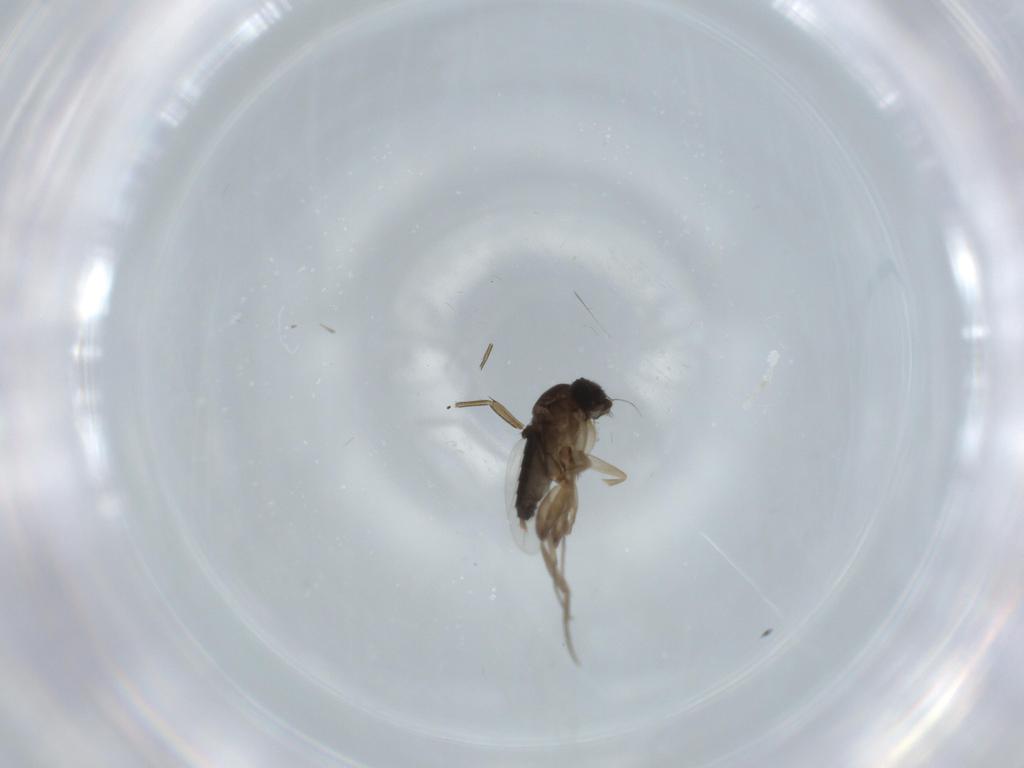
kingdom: Animalia
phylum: Arthropoda
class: Insecta
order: Diptera
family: Phoridae
